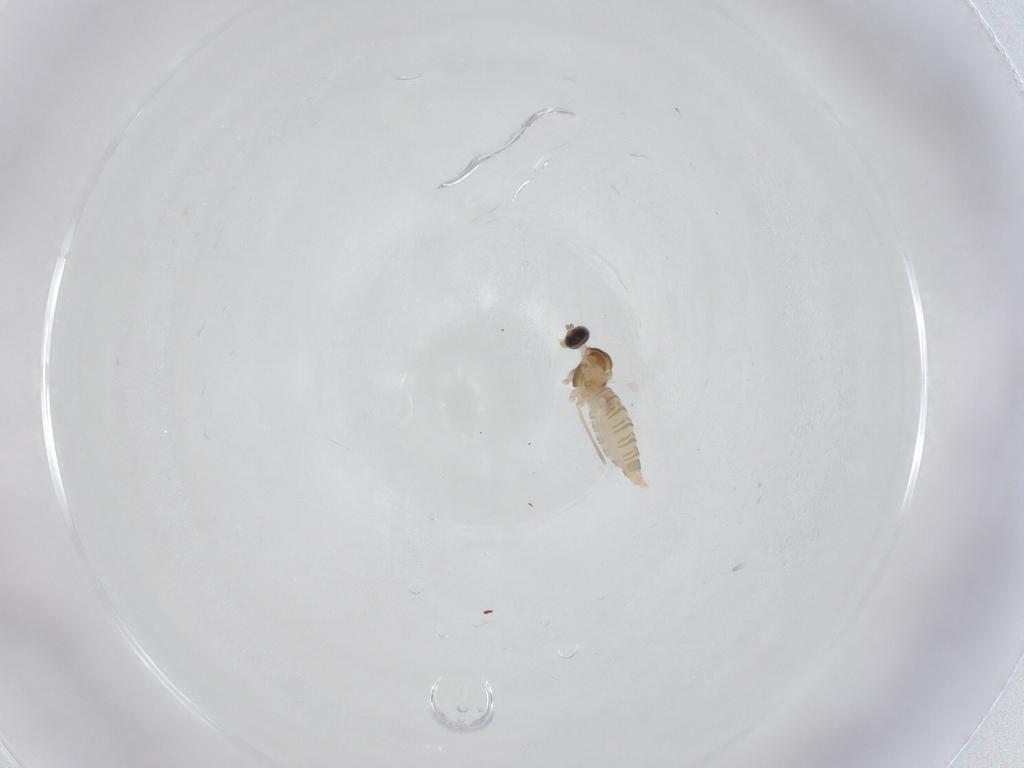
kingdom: Animalia
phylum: Arthropoda
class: Insecta
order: Diptera
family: Cecidomyiidae
